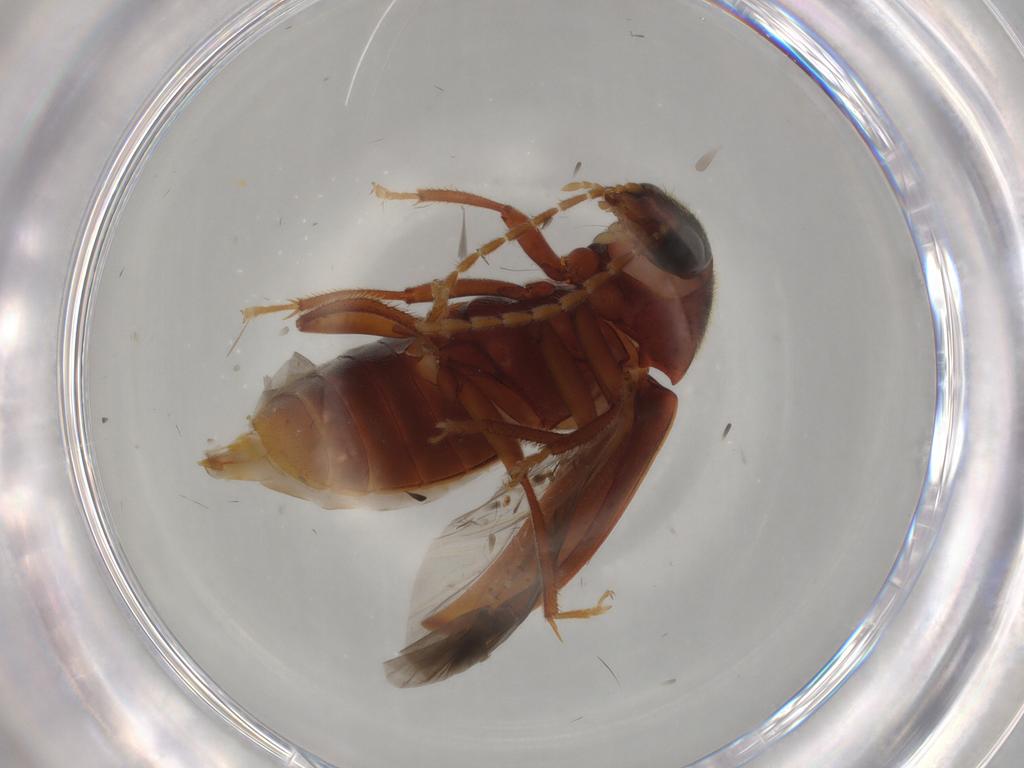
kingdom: Animalia
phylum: Arthropoda
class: Insecta
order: Coleoptera
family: Ptilodactylidae
